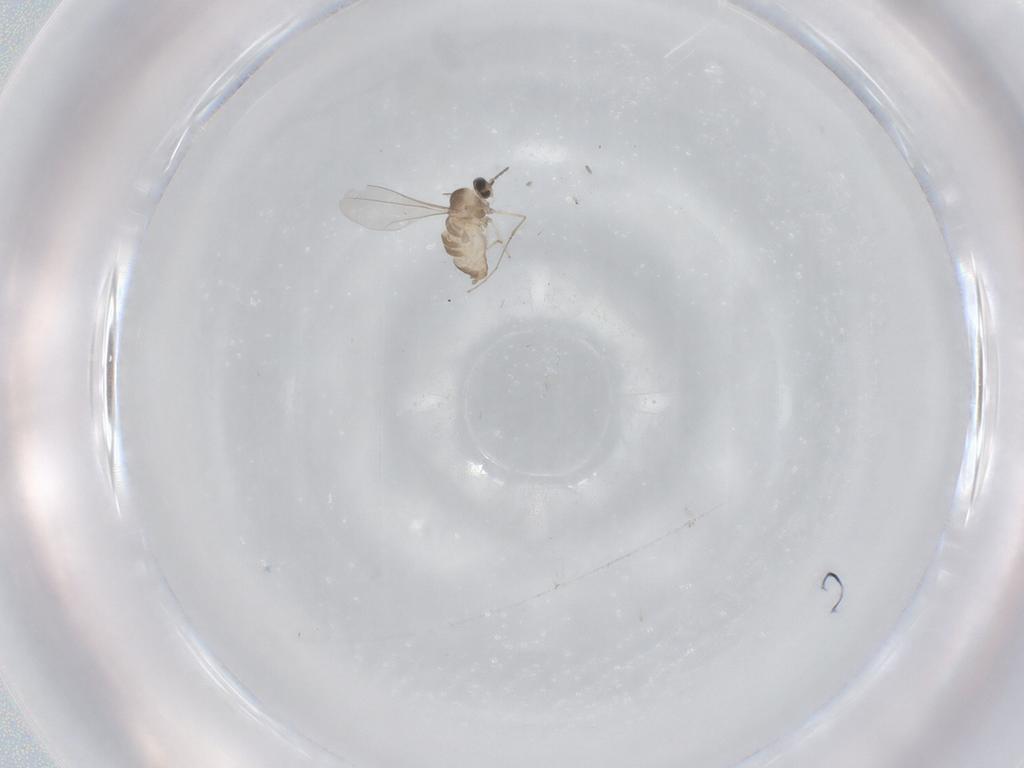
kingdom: Animalia
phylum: Arthropoda
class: Insecta
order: Diptera
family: Cecidomyiidae
